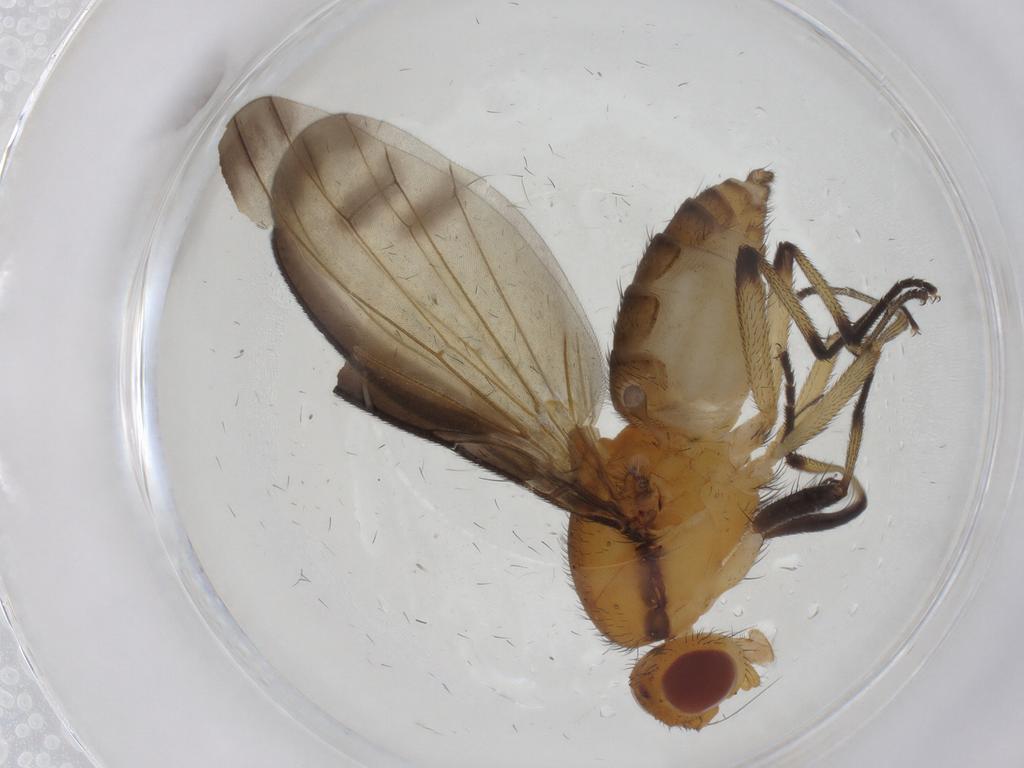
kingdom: Animalia
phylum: Arthropoda
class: Insecta
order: Diptera
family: Heleomyzidae
